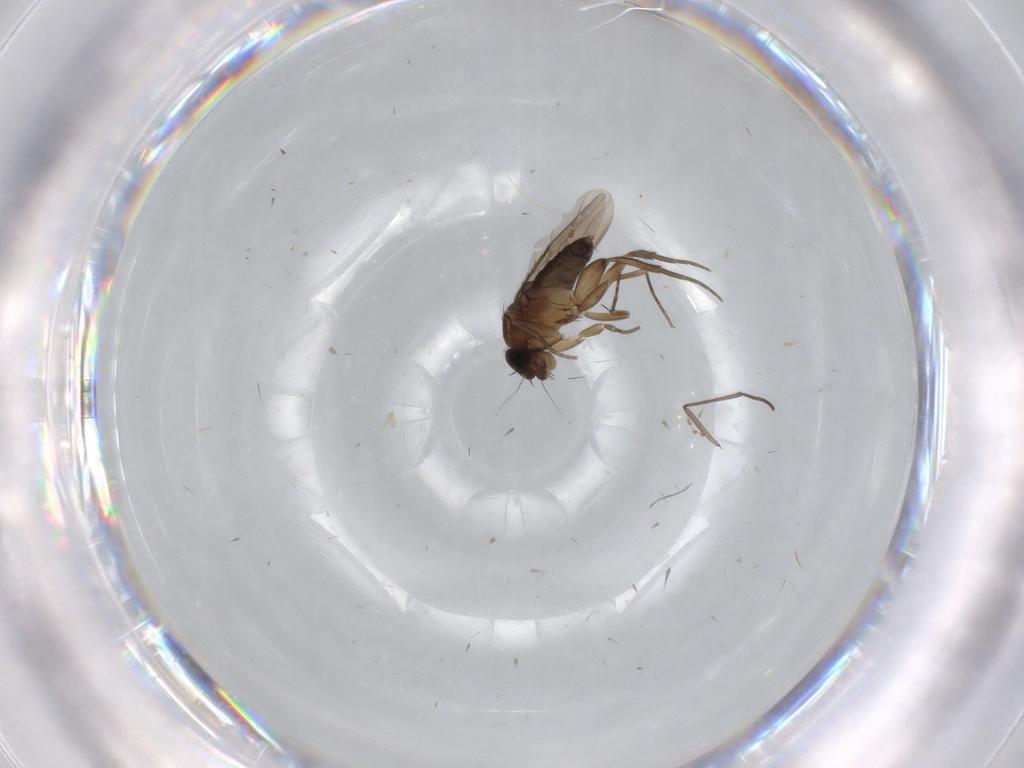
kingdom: Animalia
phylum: Arthropoda
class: Insecta
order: Diptera
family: Phoridae
